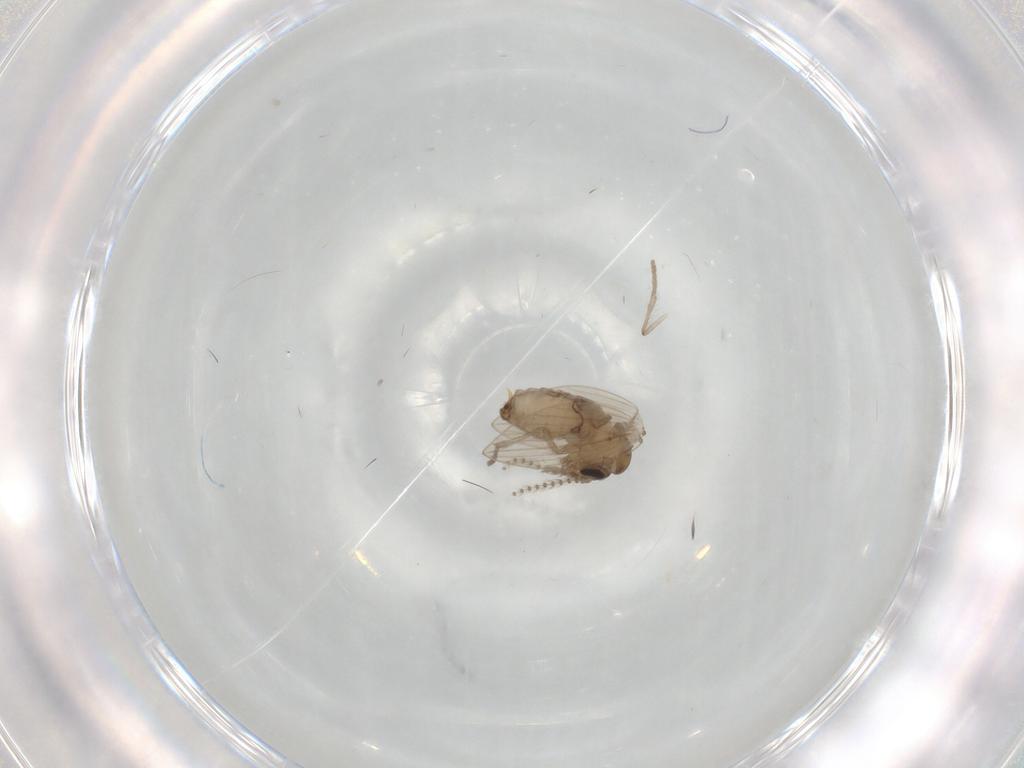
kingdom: Animalia
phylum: Arthropoda
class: Insecta
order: Diptera
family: Psychodidae
